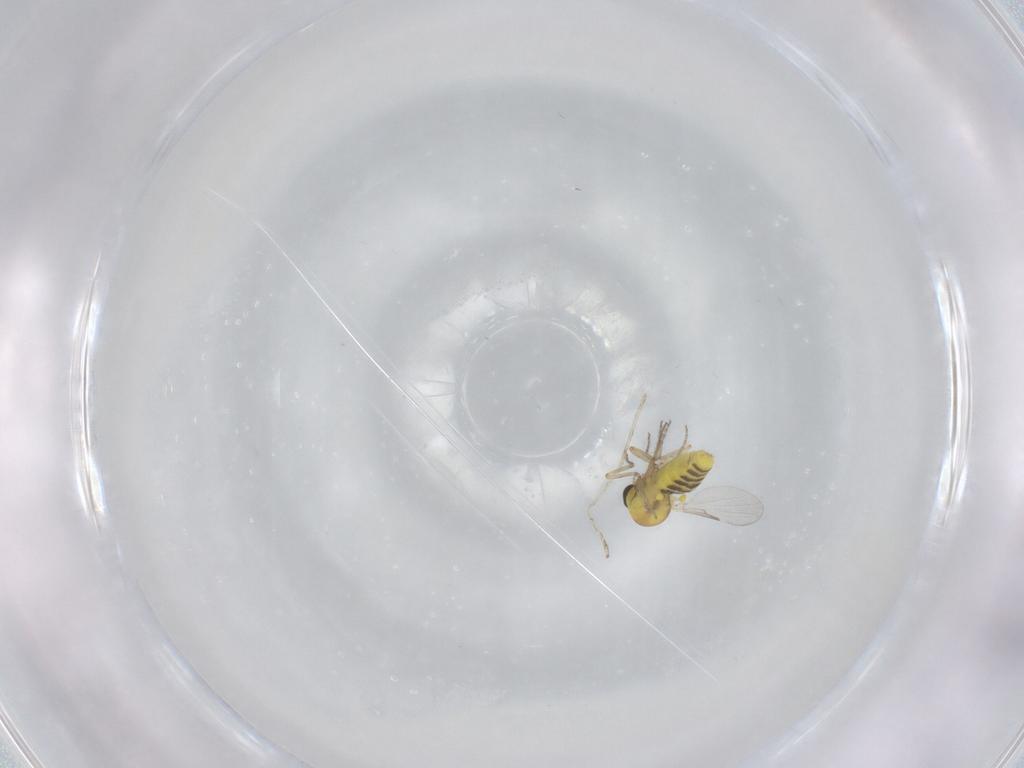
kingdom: Animalia
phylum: Arthropoda
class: Insecta
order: Diptera
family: Ceratopogonidae
